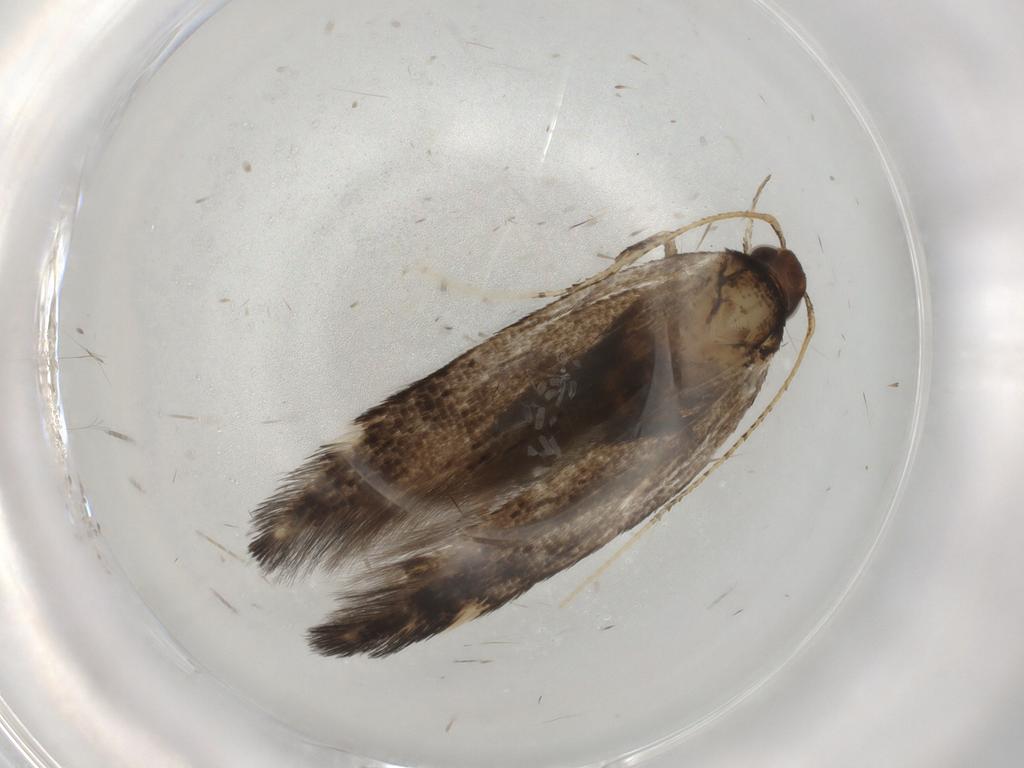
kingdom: Animalia
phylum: Arthropoda
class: Insecta
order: Lepidoptera
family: Cosmopterigidae
